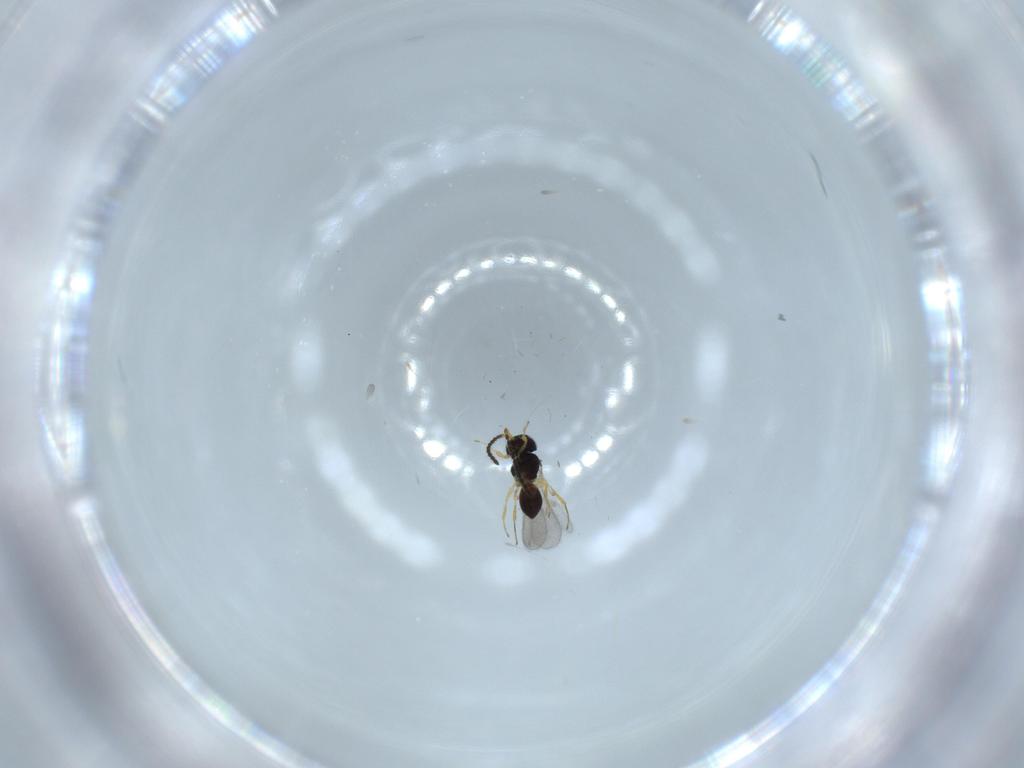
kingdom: Animalia
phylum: Arthropoda
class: Insecta
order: Hymenoptera
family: Scelionidae
